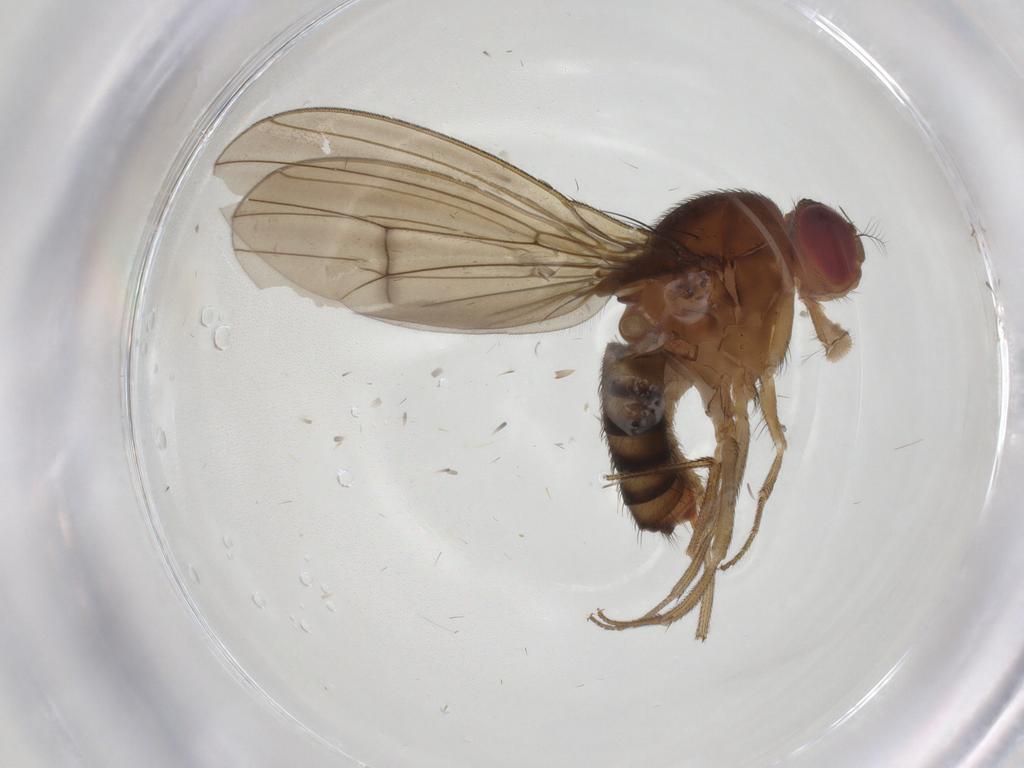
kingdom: Animalia
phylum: Arthropoda
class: Insecta
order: Diptera
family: Drosophilidae
